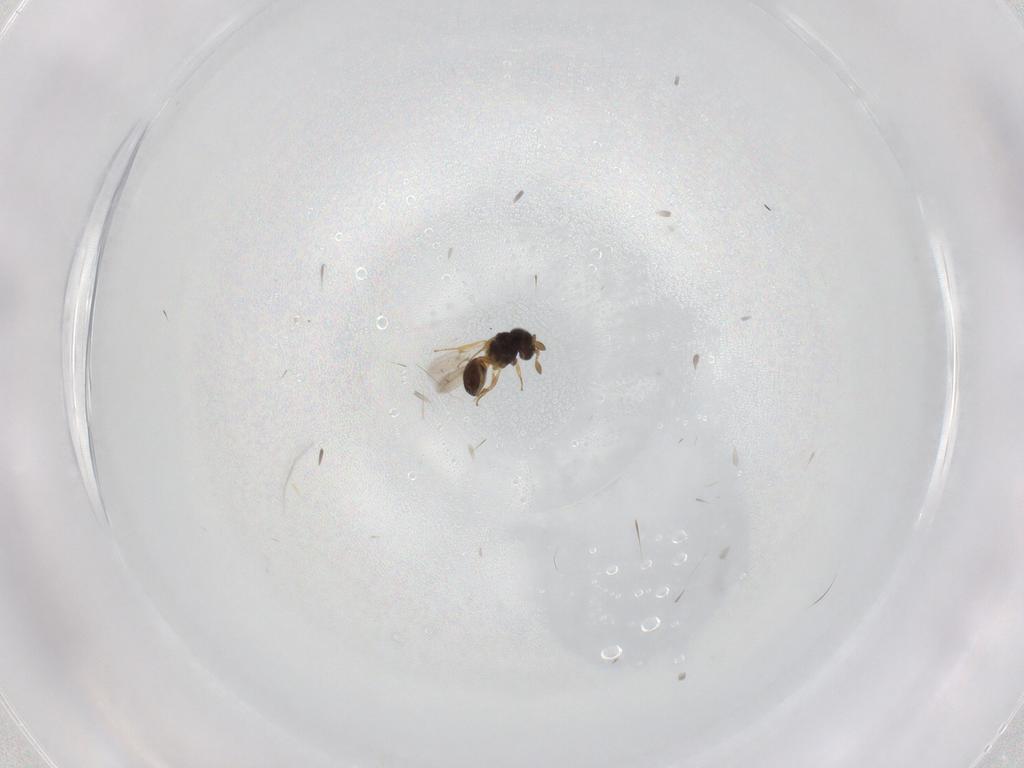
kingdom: Animalia
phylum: Arthropoda
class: Insecta
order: Hymenoptera
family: Scelionidae
